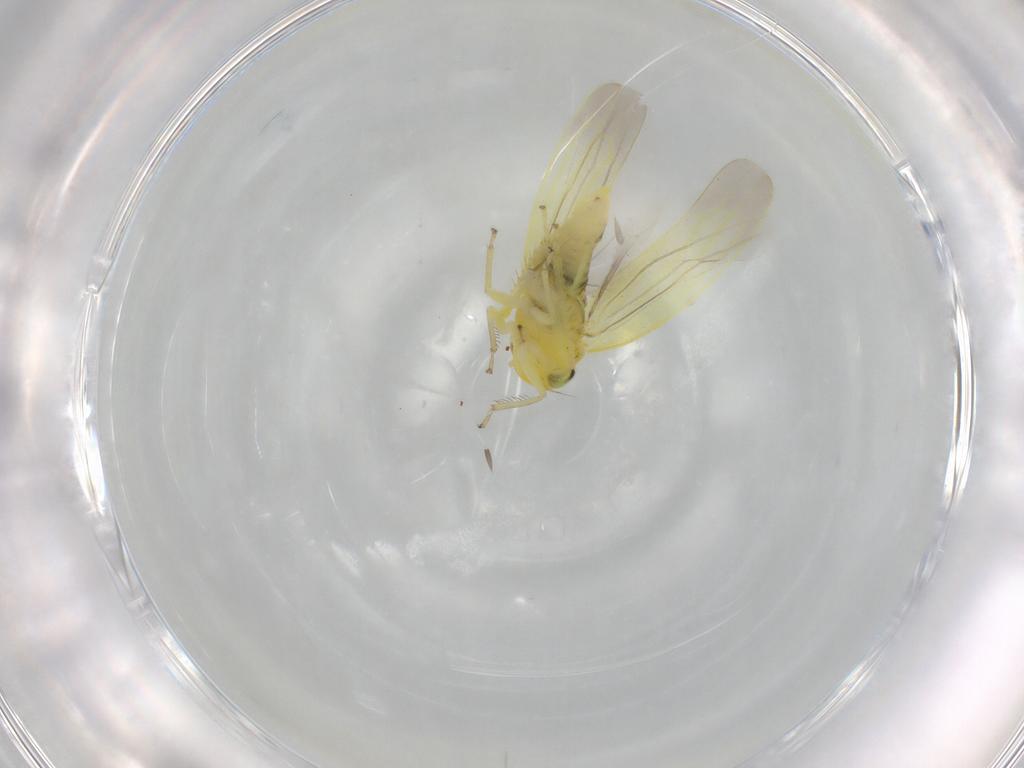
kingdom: Animalia
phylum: Arthropoda
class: Insecta
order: Hemiptera
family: Cicadellidae
